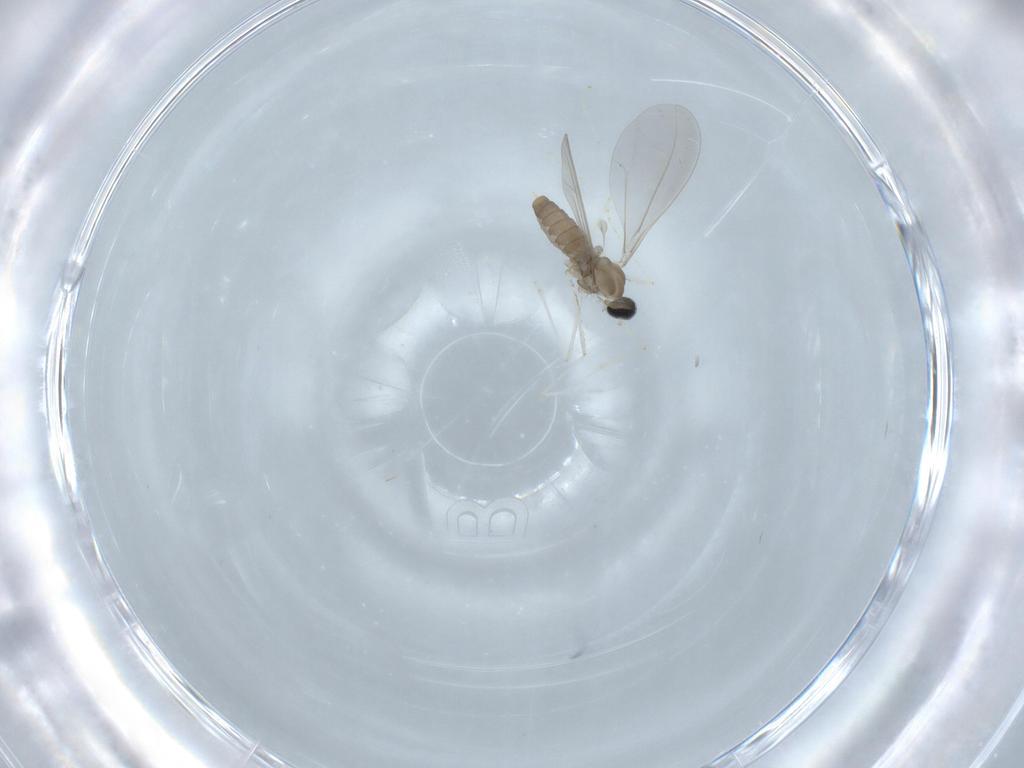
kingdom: Animalia
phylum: Arthropoda
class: Insecta
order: Diptera
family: Cecidomyiidae
